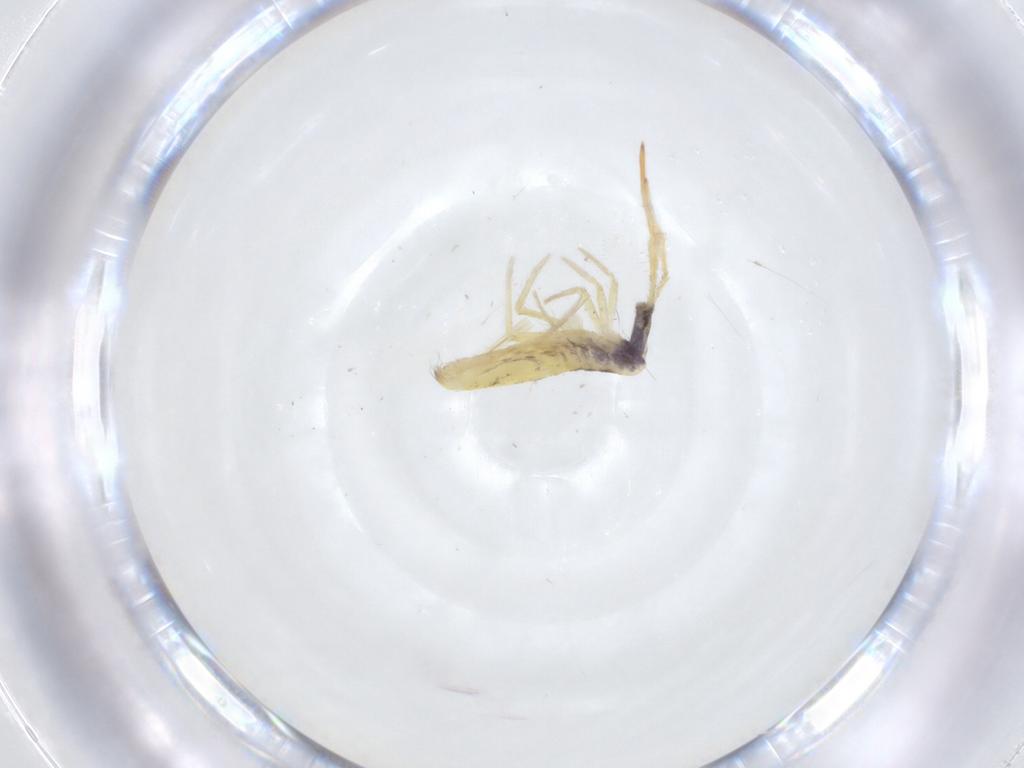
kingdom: Animalia
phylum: Arthropoda
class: Collembola
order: Entomobryomorpha
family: Entomobryidae
